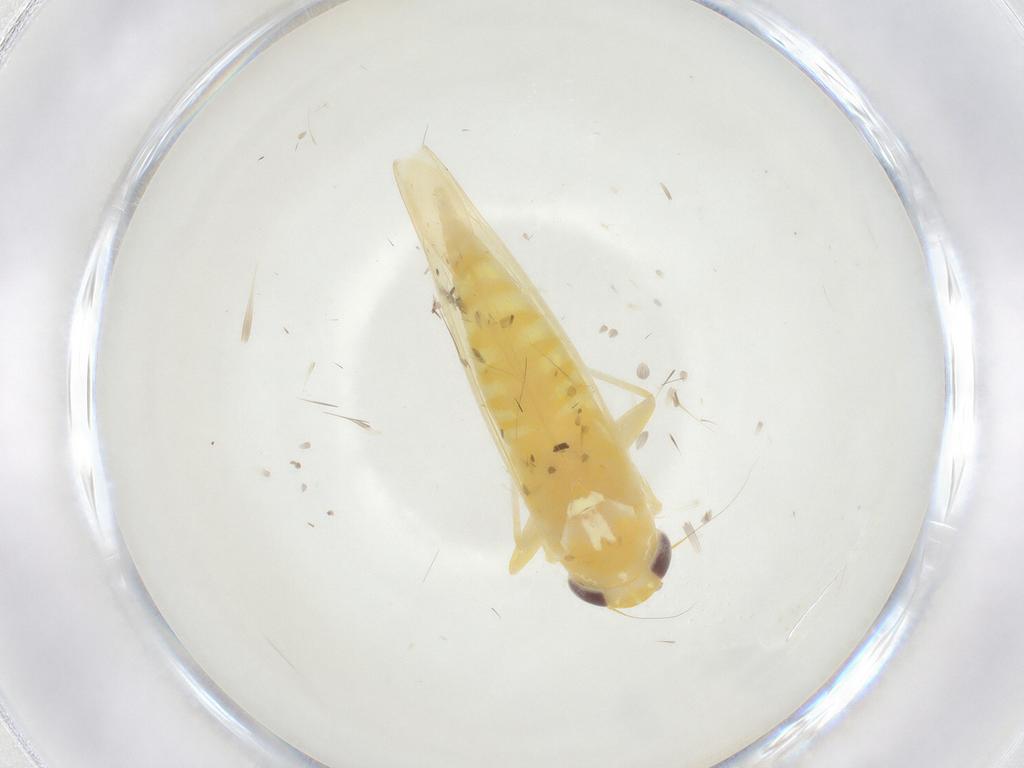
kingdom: Animalia
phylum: Arthropoda
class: Insecta
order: Hemiptera
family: Cicadellidae
